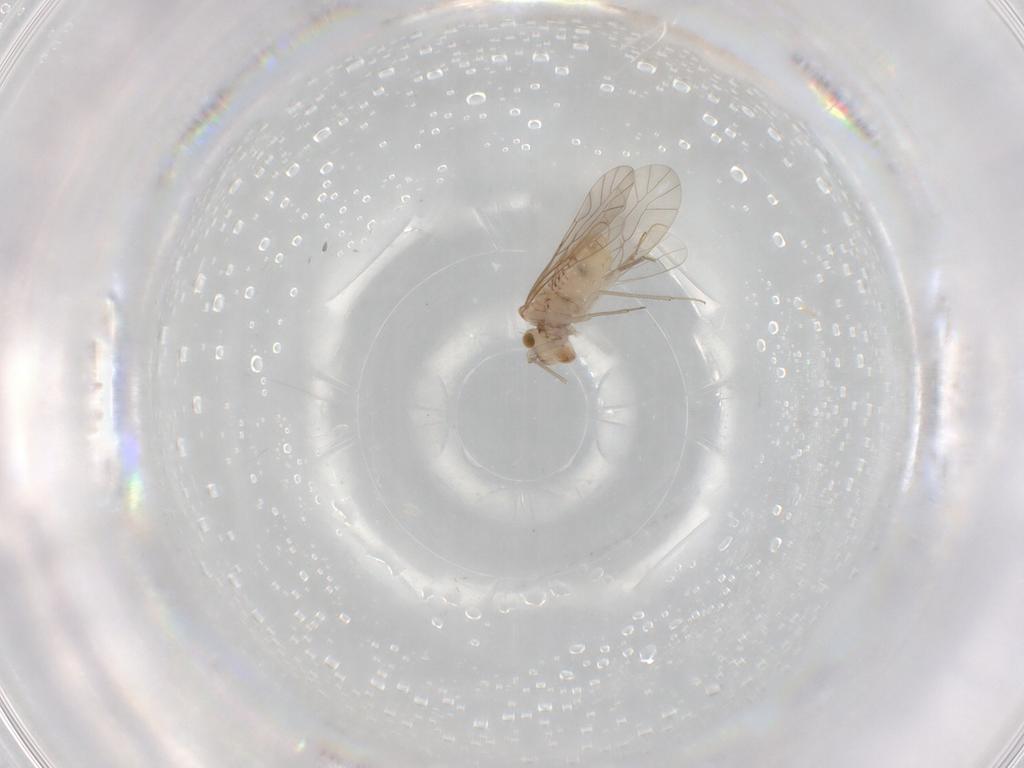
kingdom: Animalia
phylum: Arthropoda
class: Insecta
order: Psocodea
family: Lachesillidae
